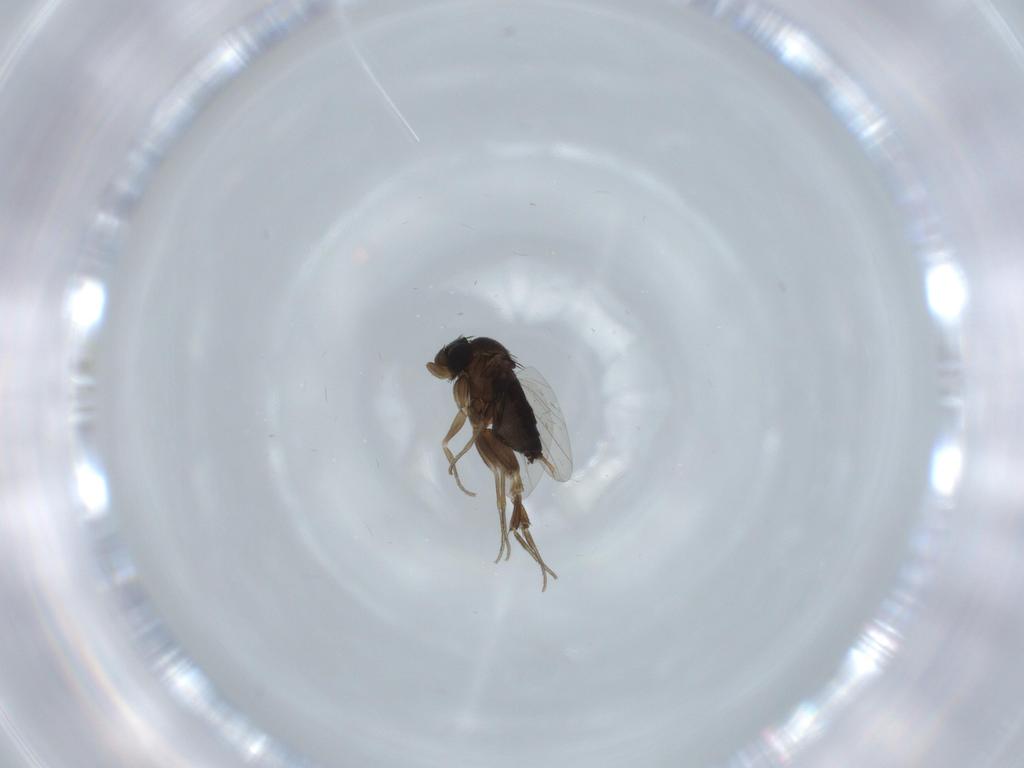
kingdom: Animalia
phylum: Arthropoda
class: Insecta
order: Diptera
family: Phoridae
